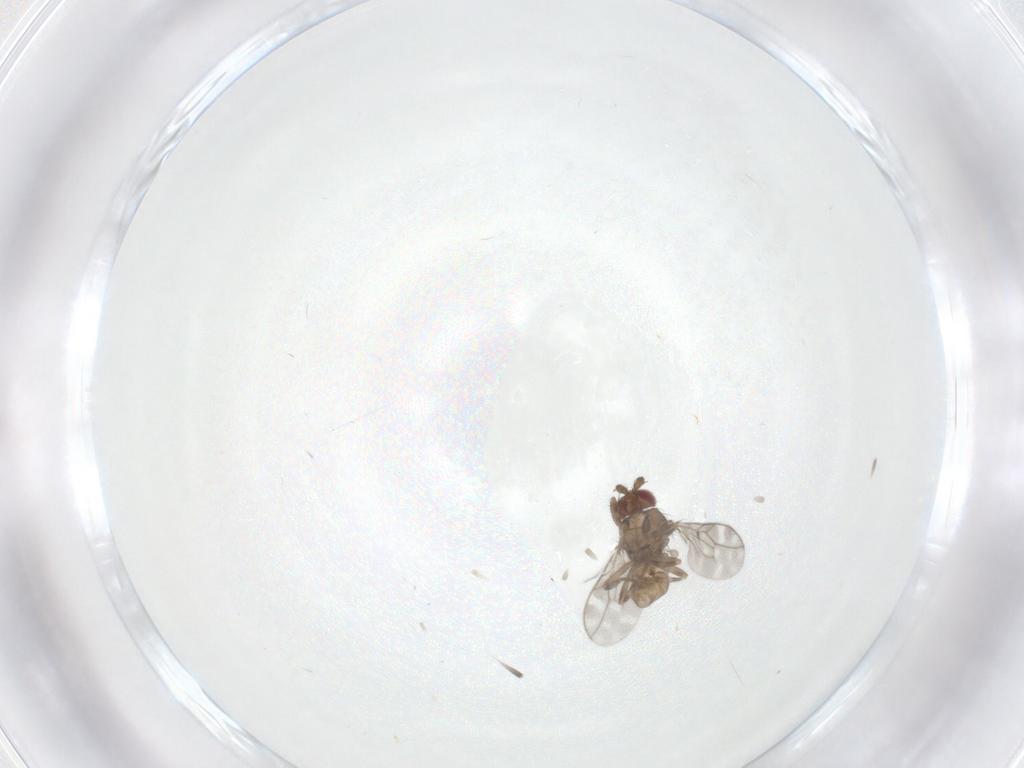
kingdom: Animalia
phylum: Arthropoda
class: Insecta
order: Diptera
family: Sphaeroceridae
